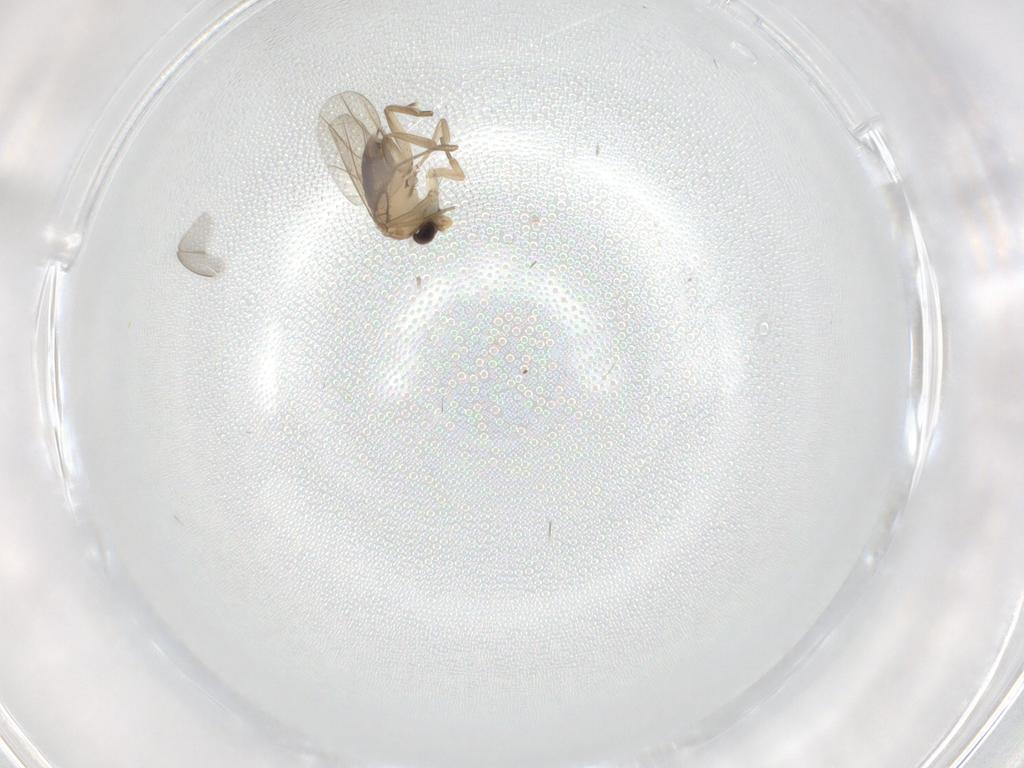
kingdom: Animalia
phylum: Arthropoda
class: Insecta
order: Diptera
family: Phoridae
